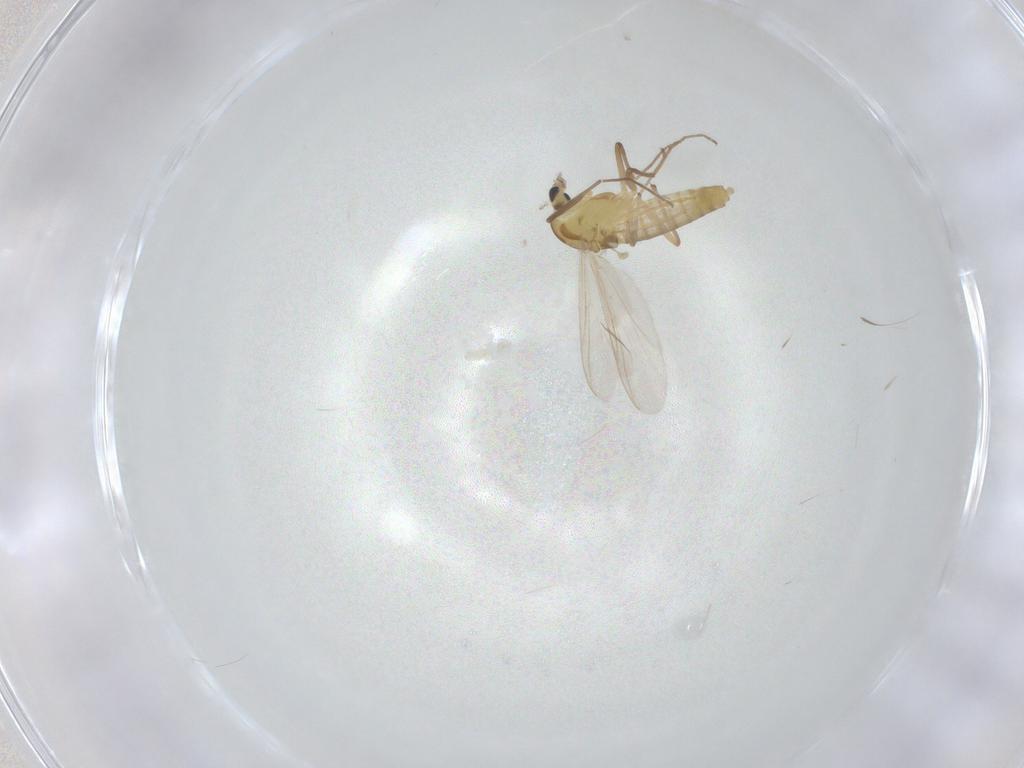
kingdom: Animalia
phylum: Arthropoda
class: Insecta
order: Diptera
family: Chironomidae
